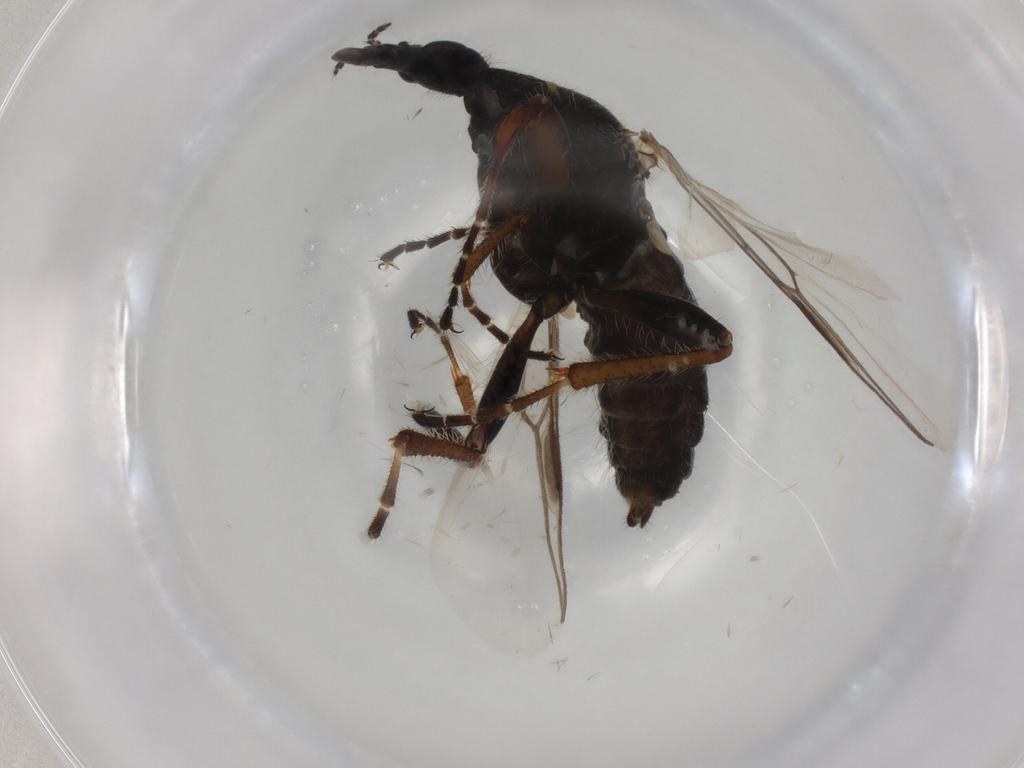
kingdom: Animalia
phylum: Arthropoda
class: Insecta
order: Diptera
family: Bibionidae
